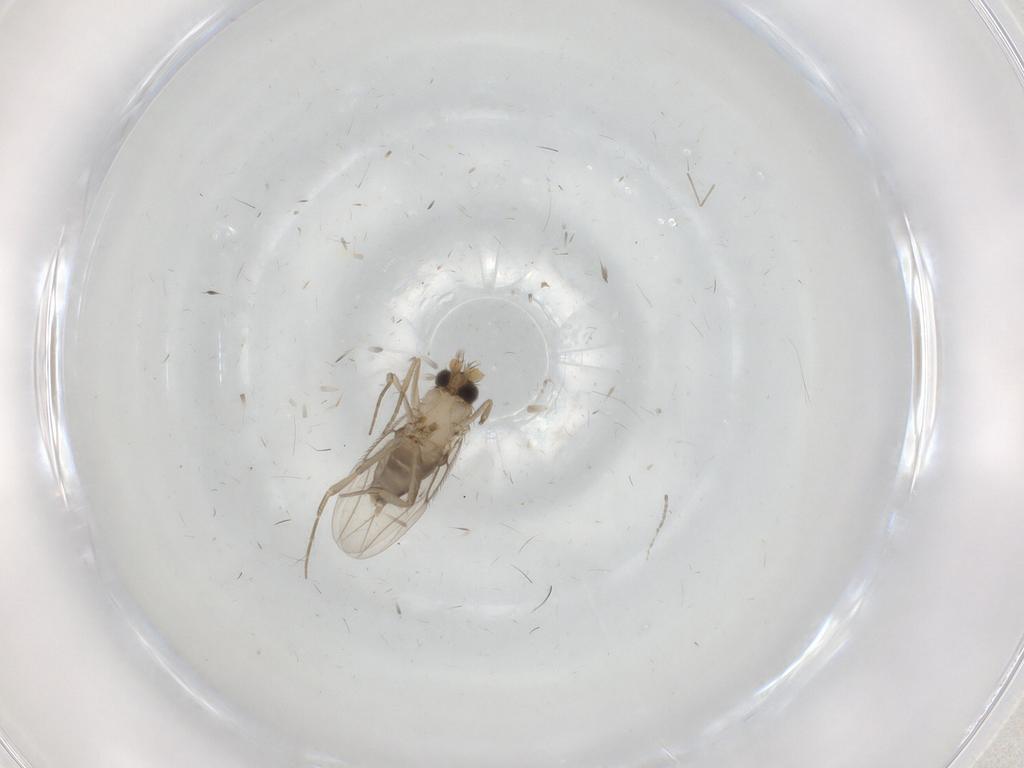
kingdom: Animalia
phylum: Arthropoda
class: Insecta
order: Diptera
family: Phoridae
